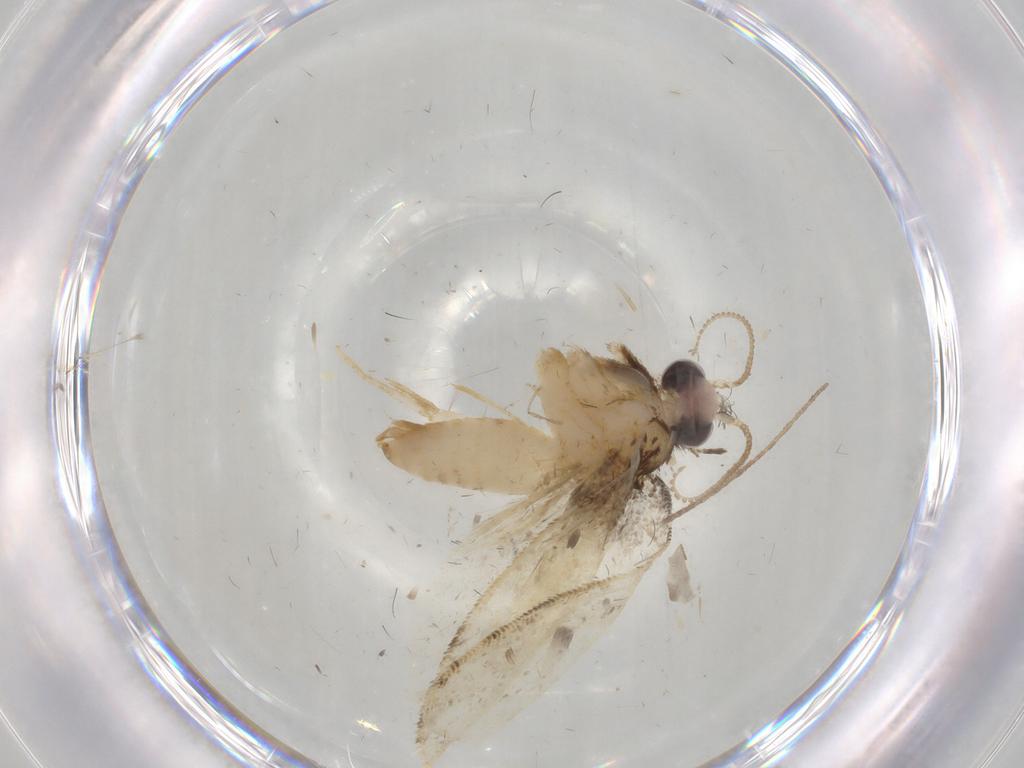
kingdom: Animalia
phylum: Arthropoda
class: Insecta
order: Lepidoptera
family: Psychidae
